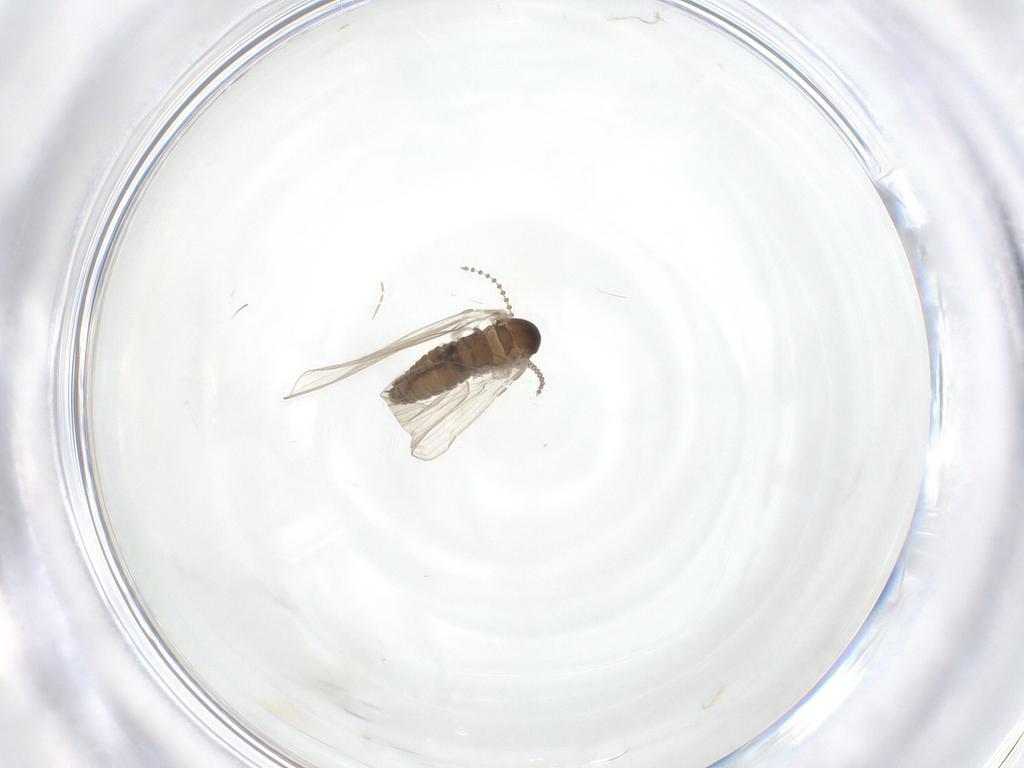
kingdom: Animalia
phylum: Arthropoda
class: Insecta
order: Diptera
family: Psychodidae
